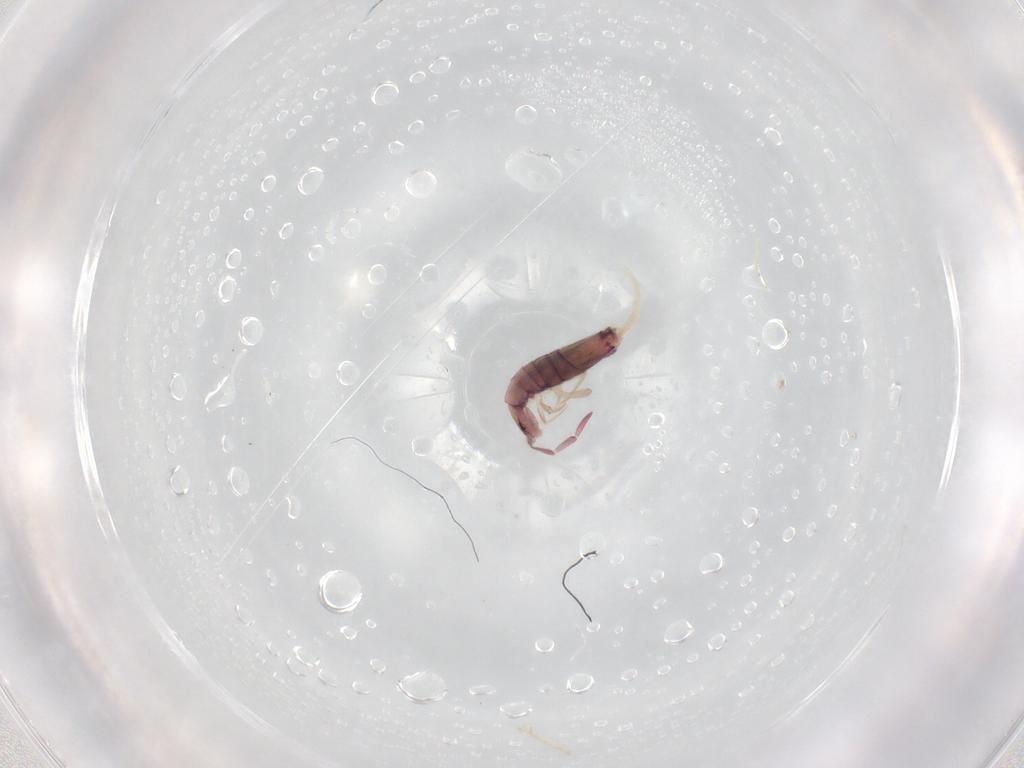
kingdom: Animalia
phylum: Arthropoda
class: Collembola
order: Entomobryomorpha
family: Entomobryidae
